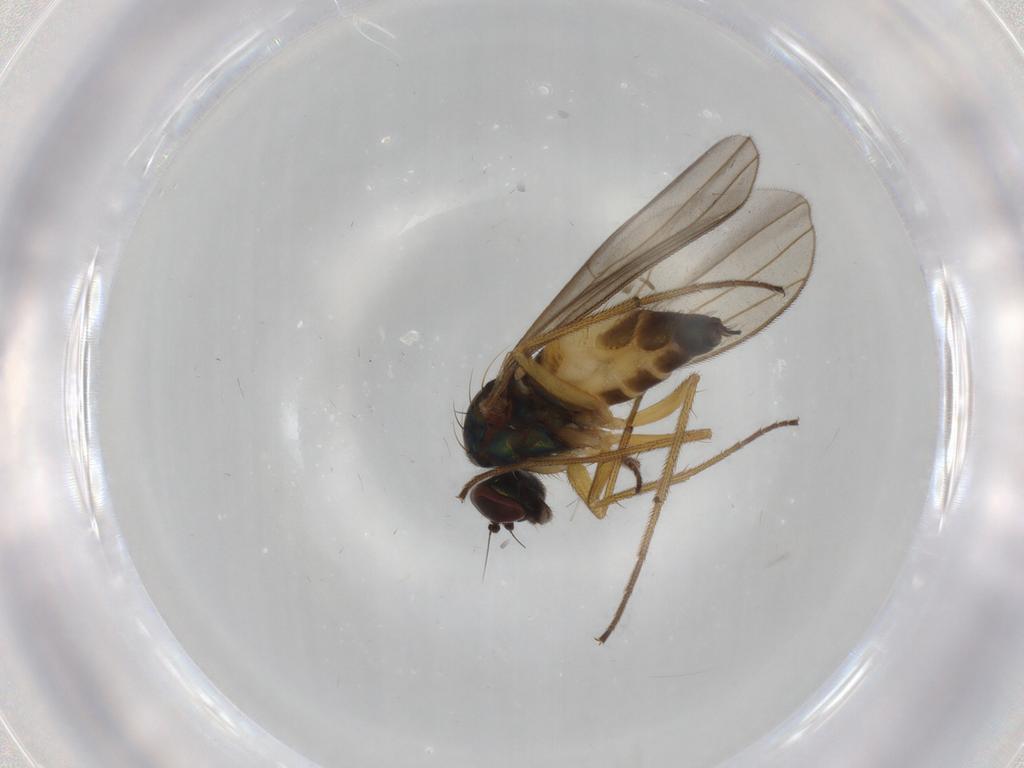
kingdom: Animalia
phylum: Arthropoda
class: Insecta
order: Diptera
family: Dolichopodidae
